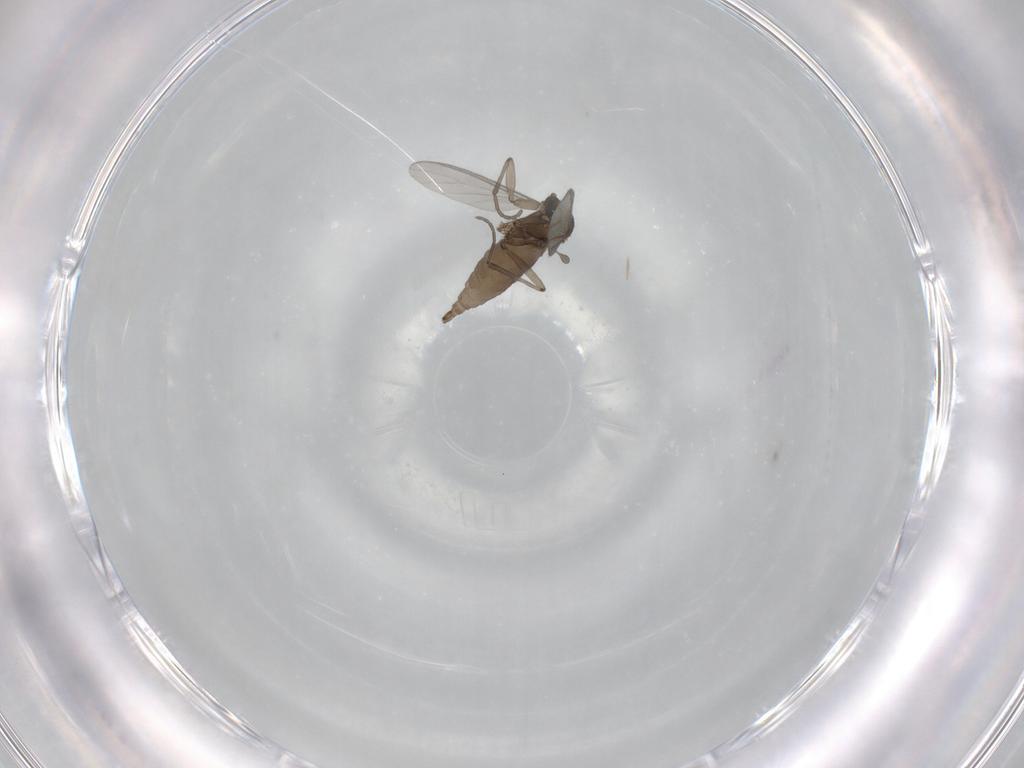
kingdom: Animalia
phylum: Arthropoda
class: Insecta
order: Diptera
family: Sciaridae
